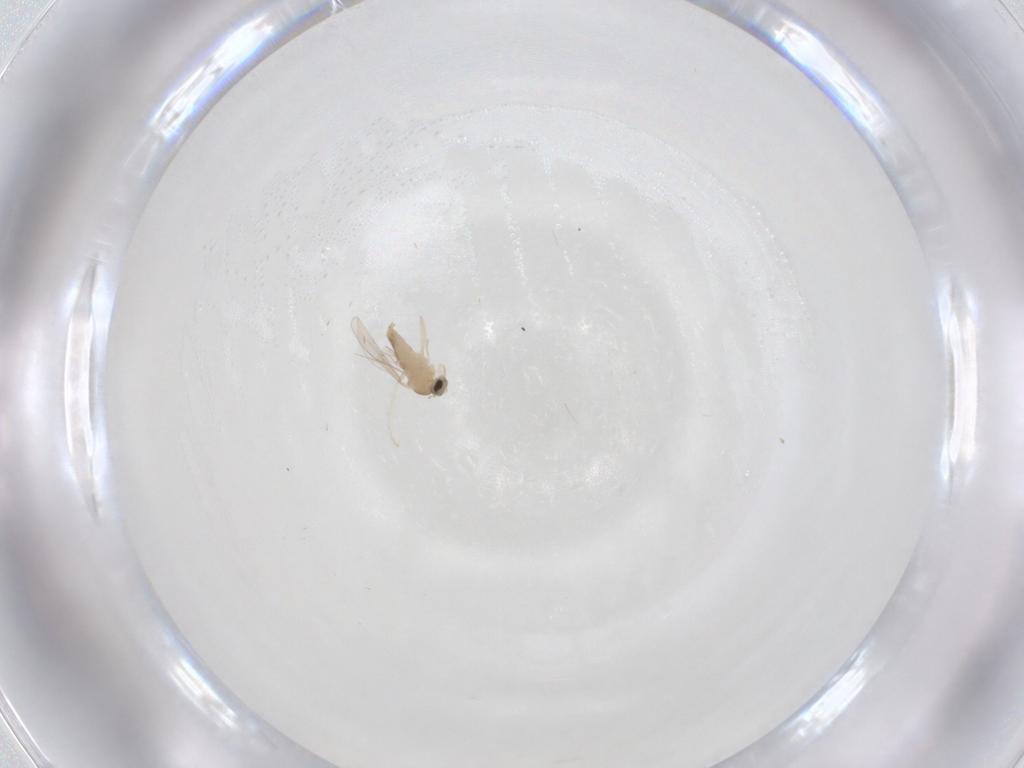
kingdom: Animalia
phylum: Arthropoda
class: Insecta
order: Diptera
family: Cecidomyiidae
